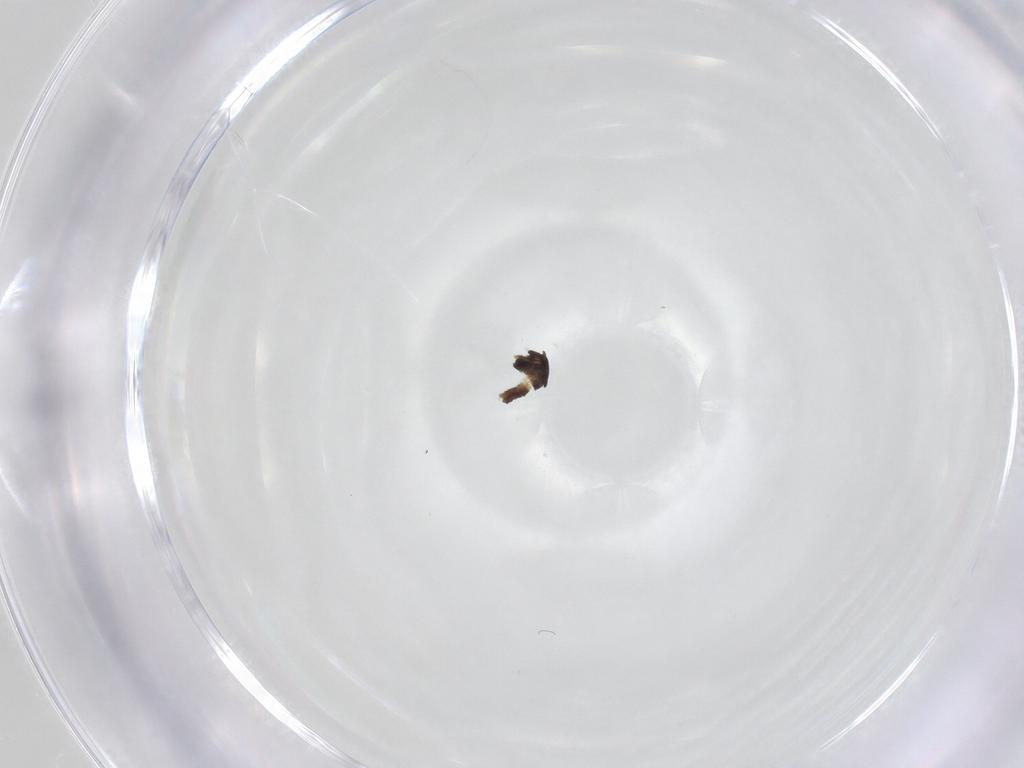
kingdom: Animalia
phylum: Arthropoda
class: Insecta
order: Diptera
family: Chironomidae
